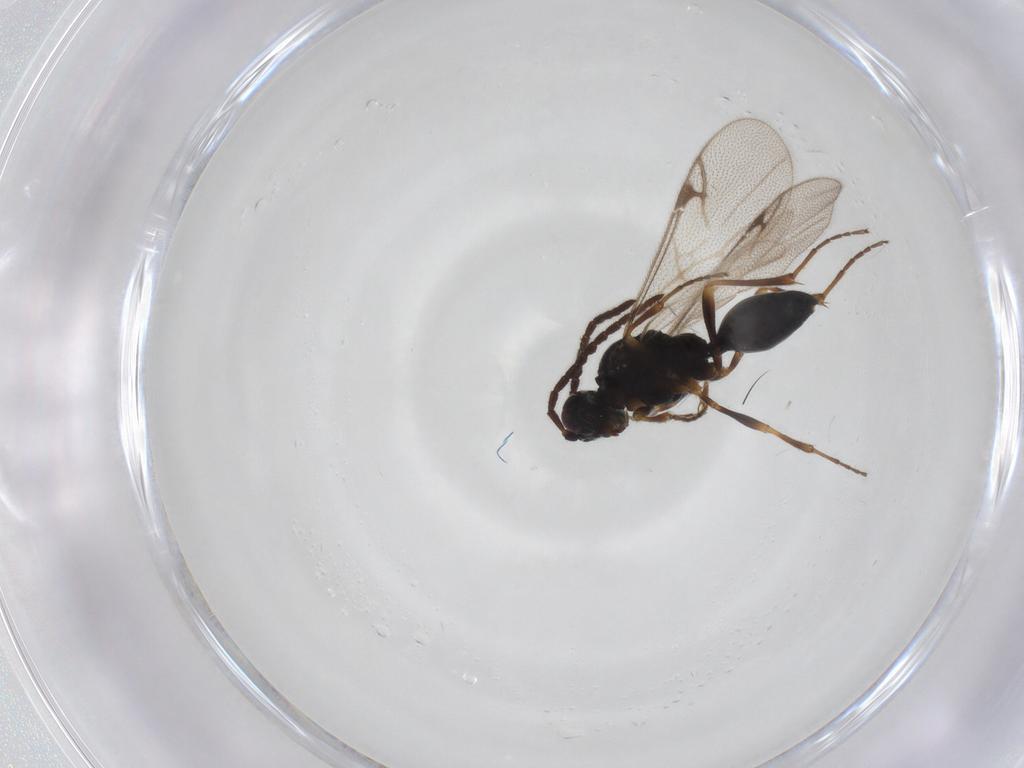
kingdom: Animalia
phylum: Arthropoda
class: Insecta
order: Hymenoptera
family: Proctotrupidae
